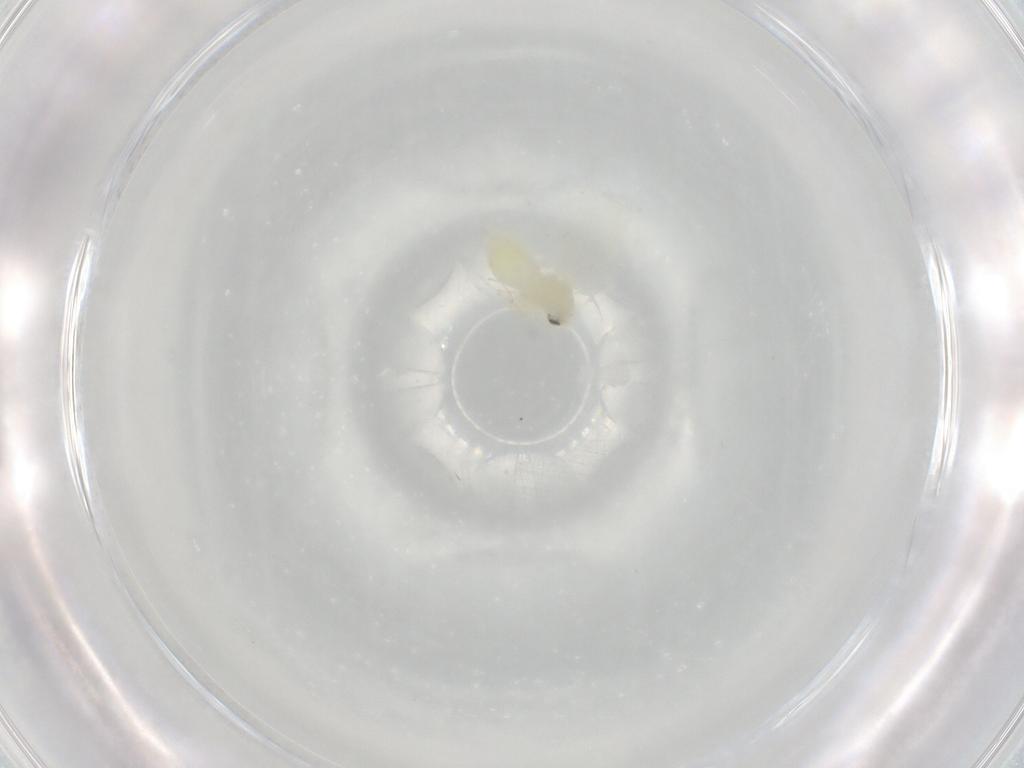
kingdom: Animalia
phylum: Arthropoda
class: Insecta
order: Hemiptera
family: Aleyrodidae
